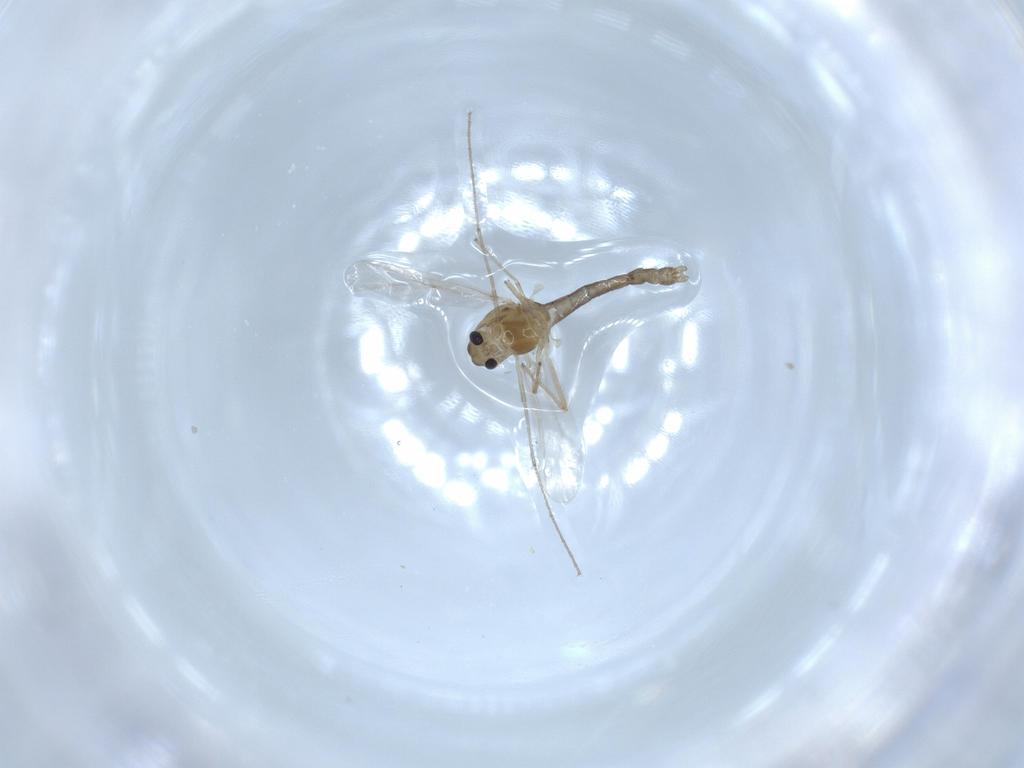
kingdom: Animalia
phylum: Arthropoda
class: Insecta
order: Diptera
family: Chironomidae
